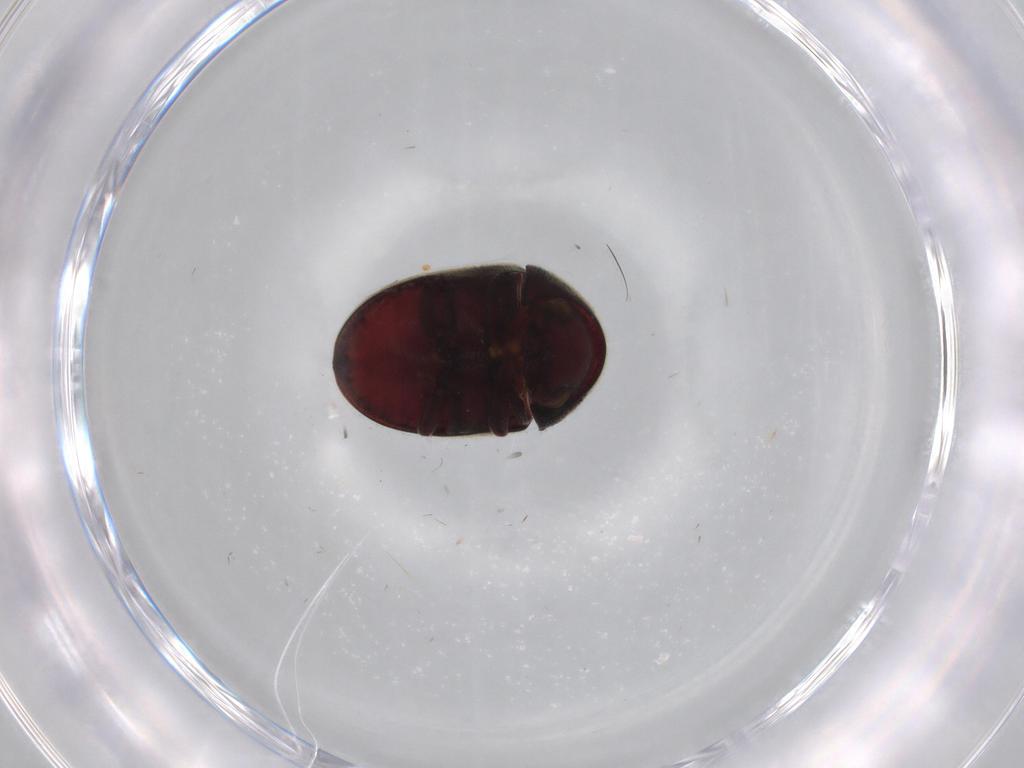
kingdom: Animalia
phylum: Arthropoda
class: Insecta
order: Coleoptera
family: Ptinidae
